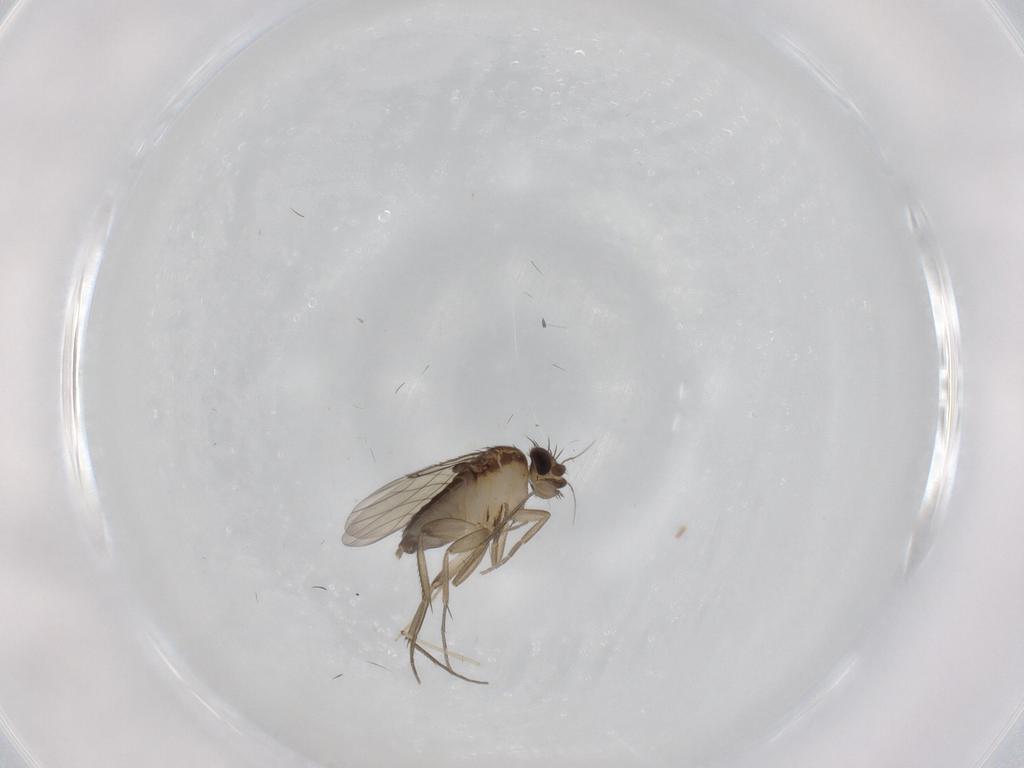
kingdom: Animalia
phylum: Arthropoda
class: Insecta
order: Diptera
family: Phoridae
